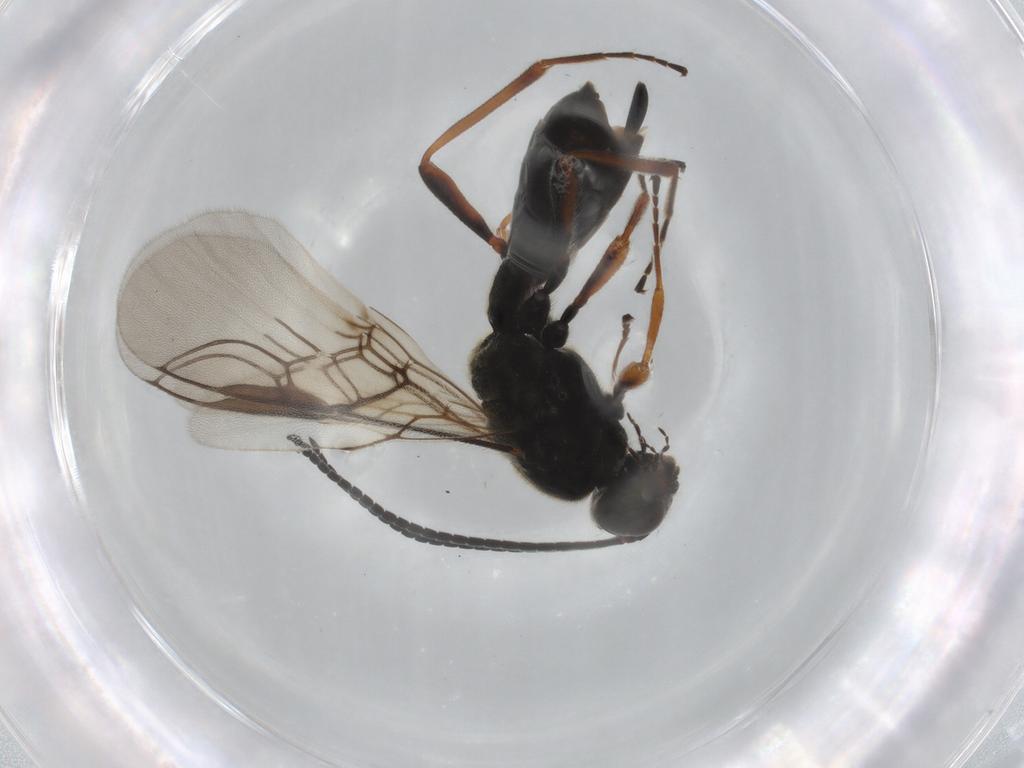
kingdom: Animalia
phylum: Arthropoda
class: Insecta
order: Hymenoptera
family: Braconidae
